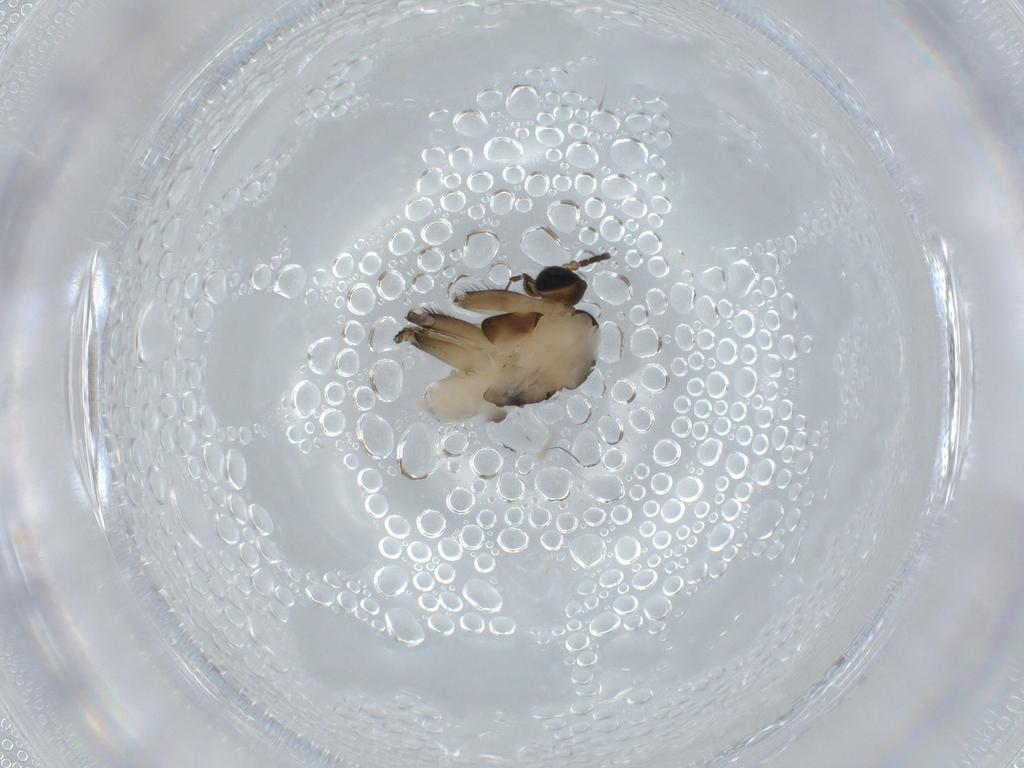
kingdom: Animalia
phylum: Arthropoda
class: Insecta
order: Diptera
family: Sciaridae
